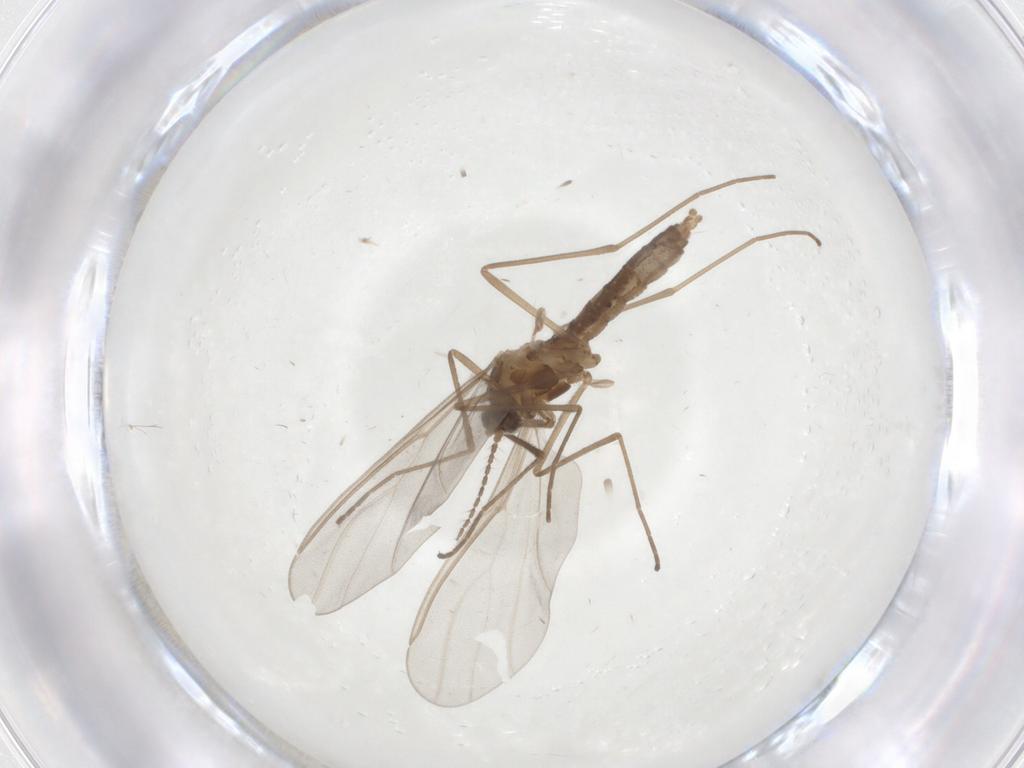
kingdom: Animalia
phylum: Arthropoda
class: Insecta
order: Diptera
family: Cecidomyiidae
